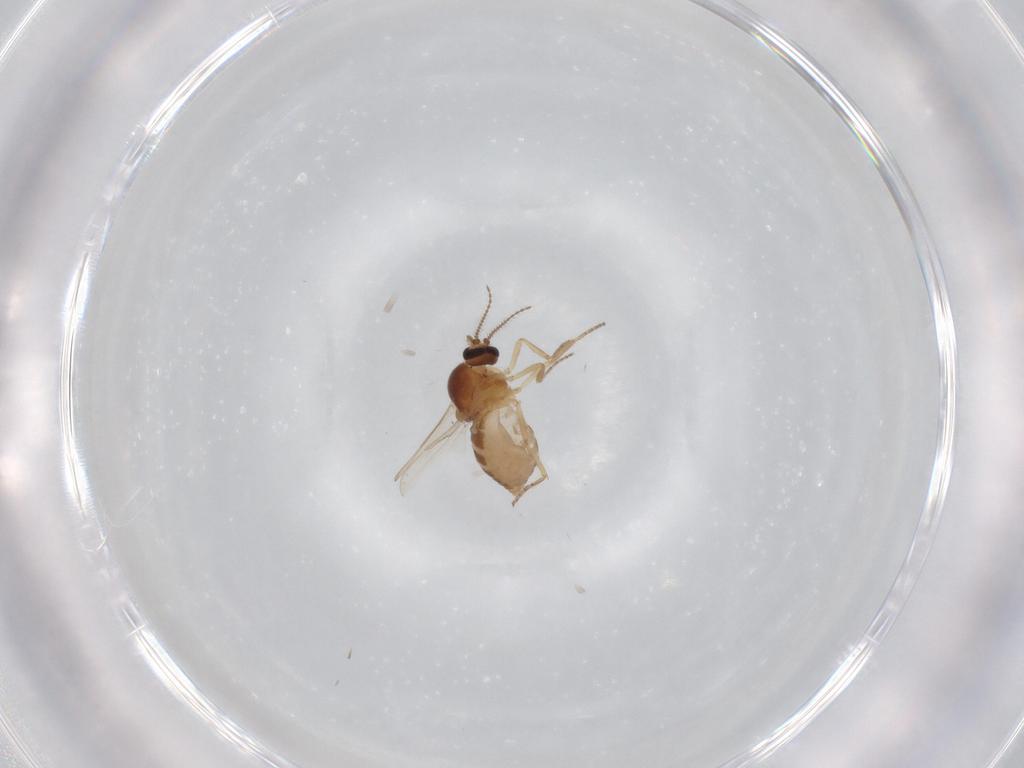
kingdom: Animalia
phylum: Arthropoda
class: Insecta
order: Diptera
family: Ceratopogonidae
